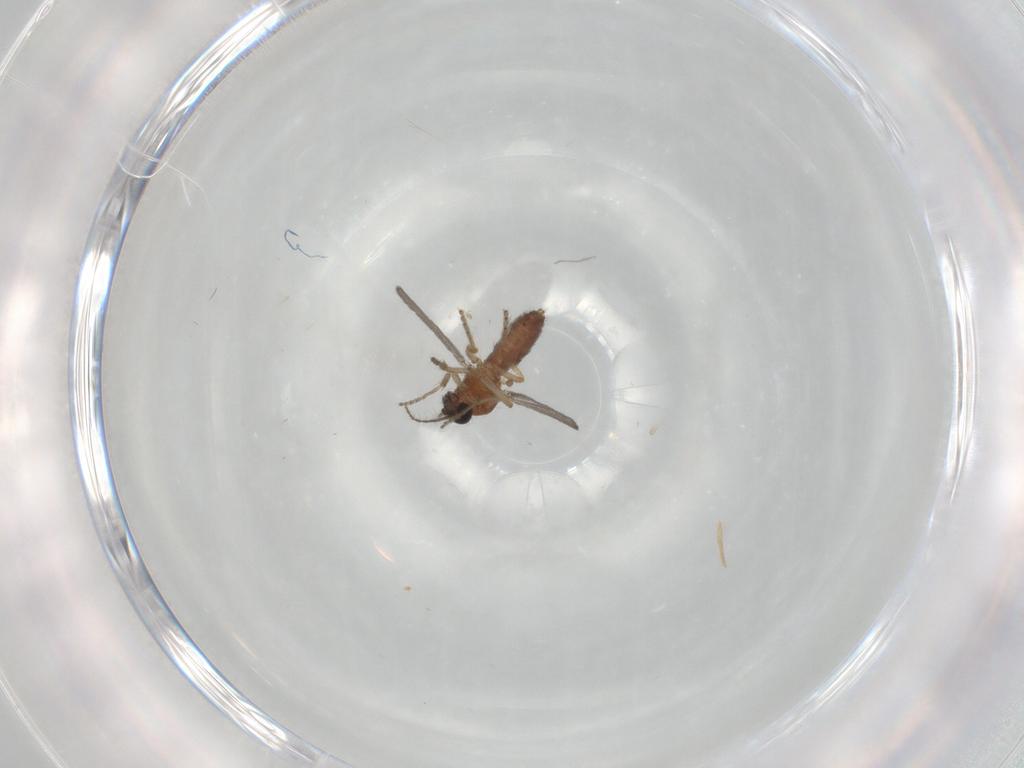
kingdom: Animalia
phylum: Arthropoda
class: Insecta
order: Diptera
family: Ceratopogonidae
